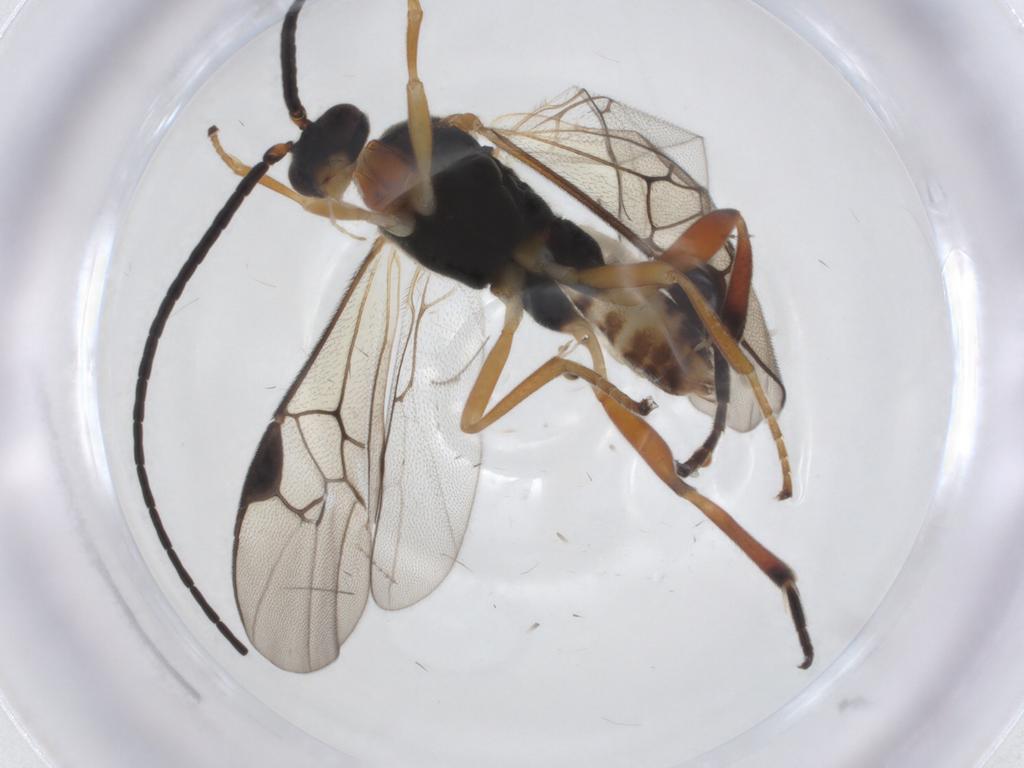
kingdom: Animalia
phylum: Arthropoda
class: Insecta
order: Lepidoptera
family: Tortricidae
